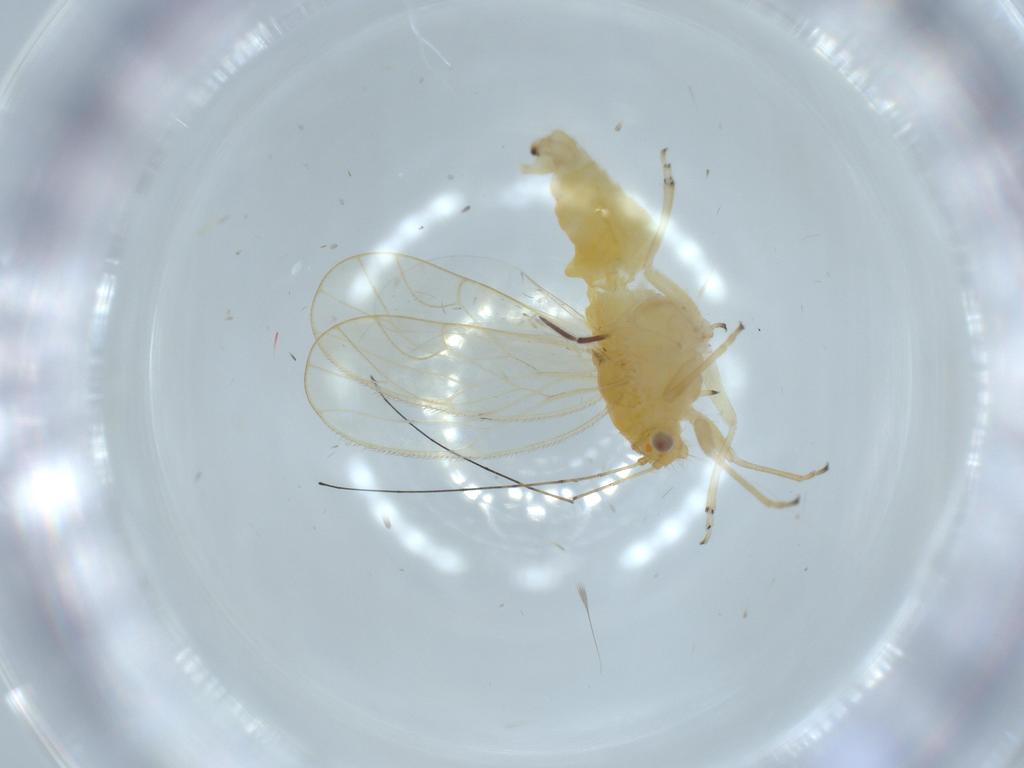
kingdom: Animalia
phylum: Arthropoda
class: Insecta
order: Hemiptera
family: Psyllidae
